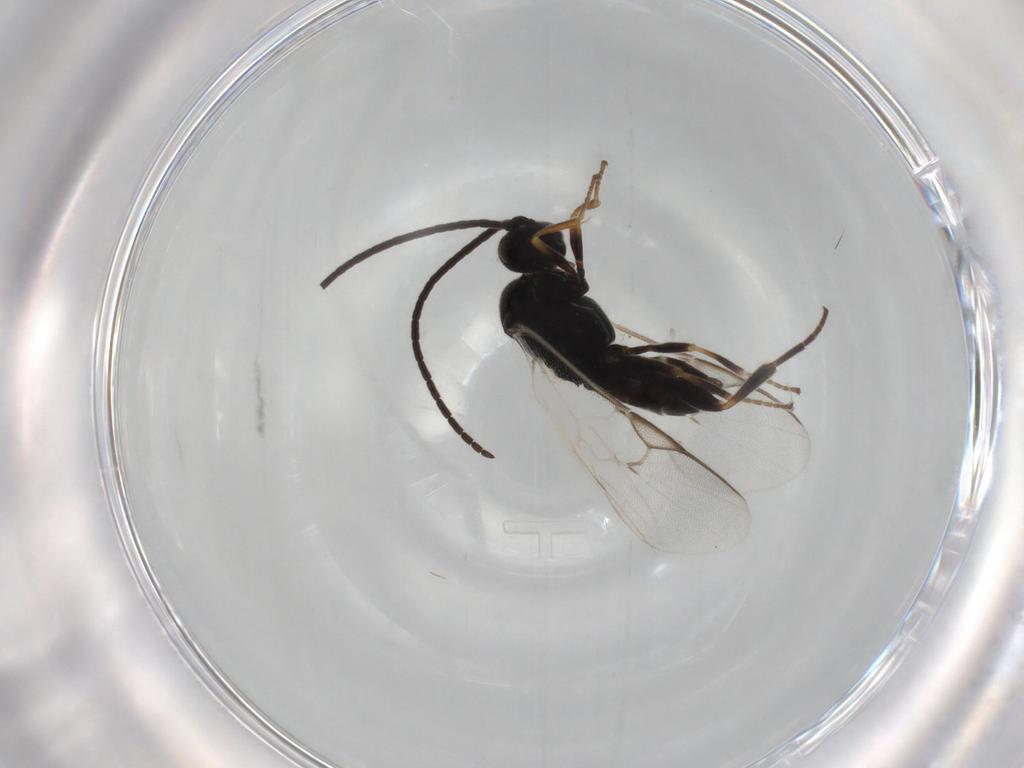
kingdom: Animalia
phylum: Arthropoda
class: Insecta
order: Hymenoptera
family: Braconidae
